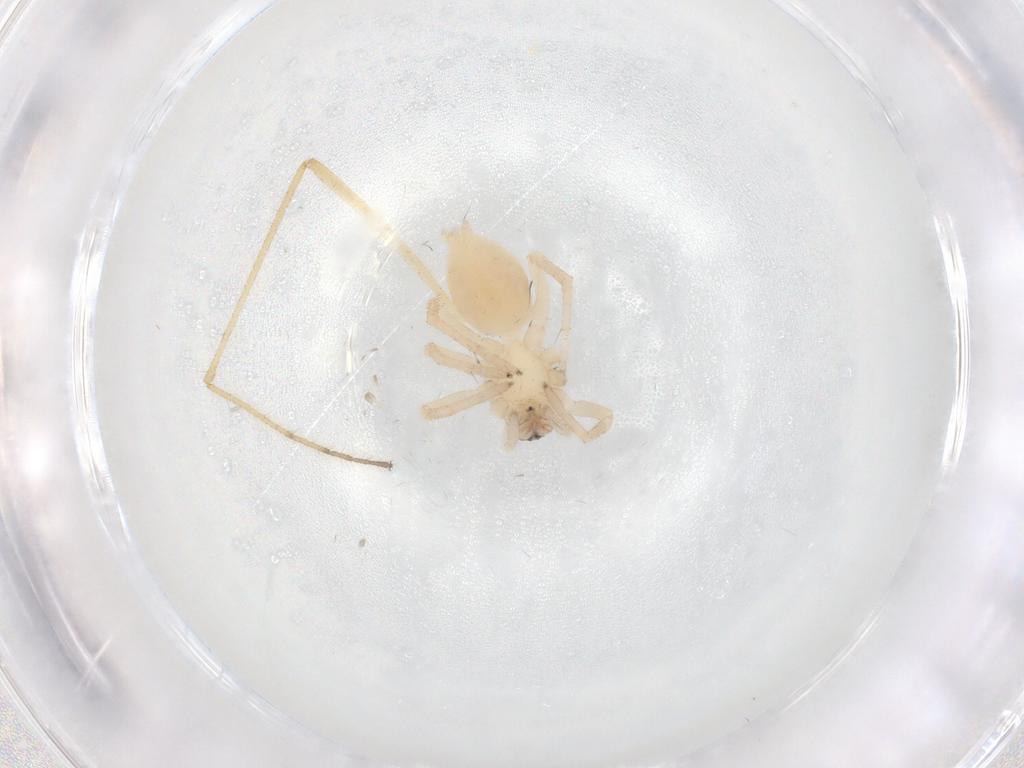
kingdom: Animalia
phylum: Arthropoda
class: Arachnida
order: Araneae
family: Clubionidae
